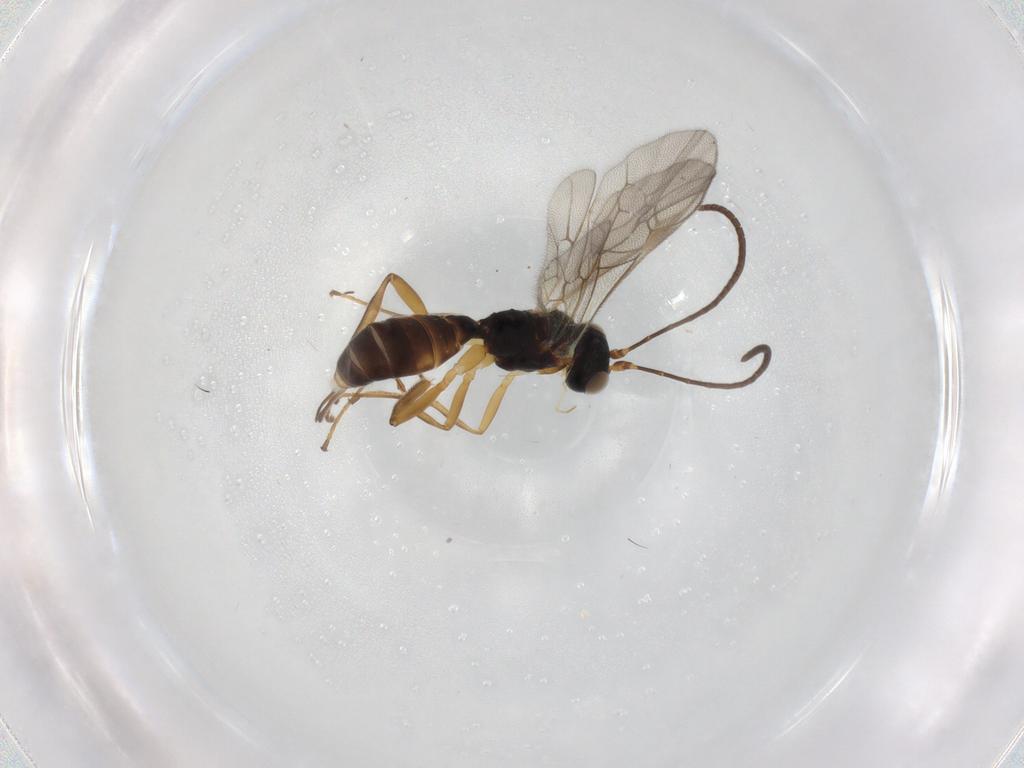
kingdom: Animalia
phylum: Arthropoda
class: Insecta
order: Hymenoptera
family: Ichneumonidae
